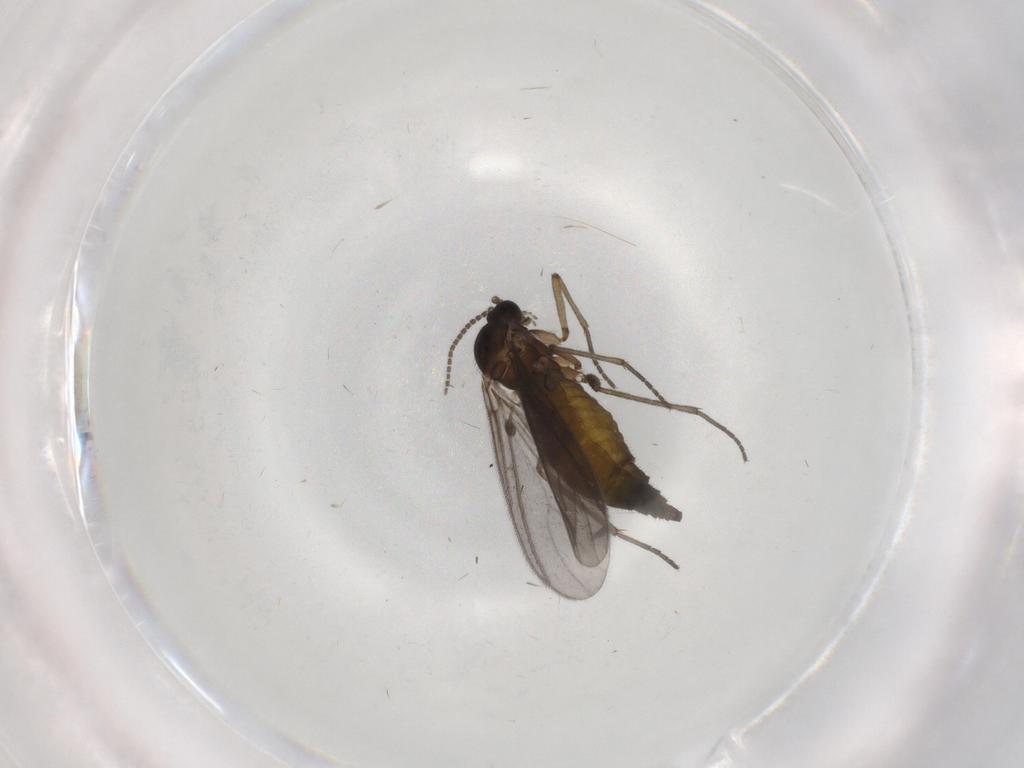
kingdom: Animalia
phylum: Arthropoda
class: Insecta
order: Diptera
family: Sciaridae
